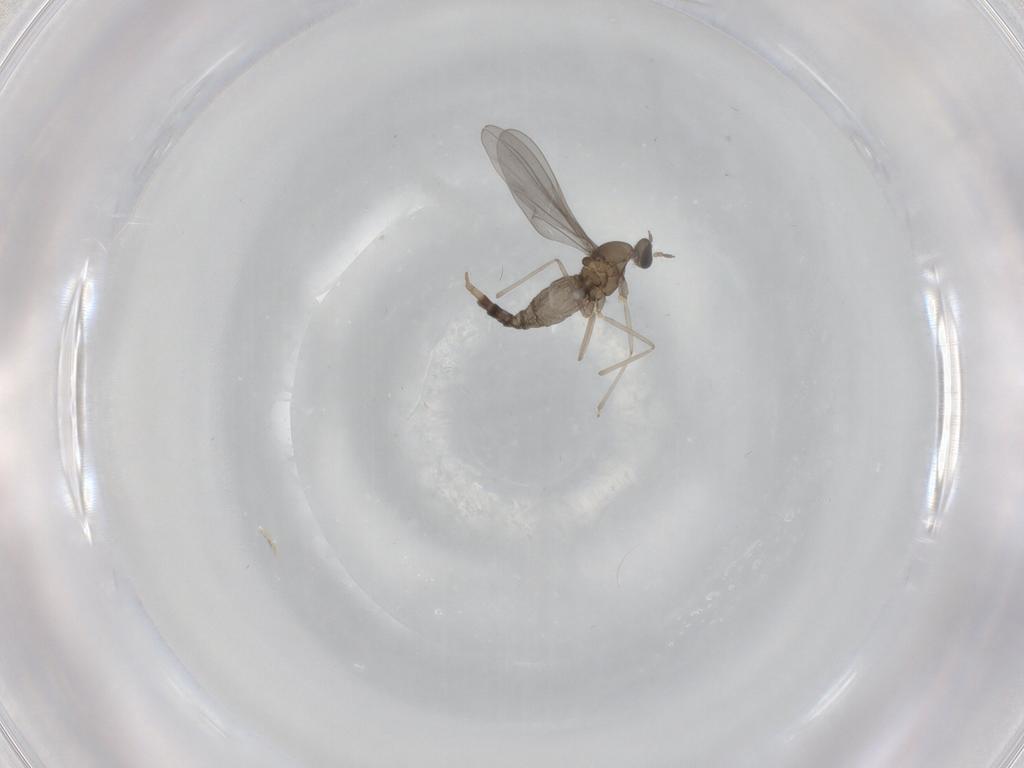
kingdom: Animalia
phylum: Arthropoda
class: Insecta
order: Diptera
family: Cecidomyiidae
